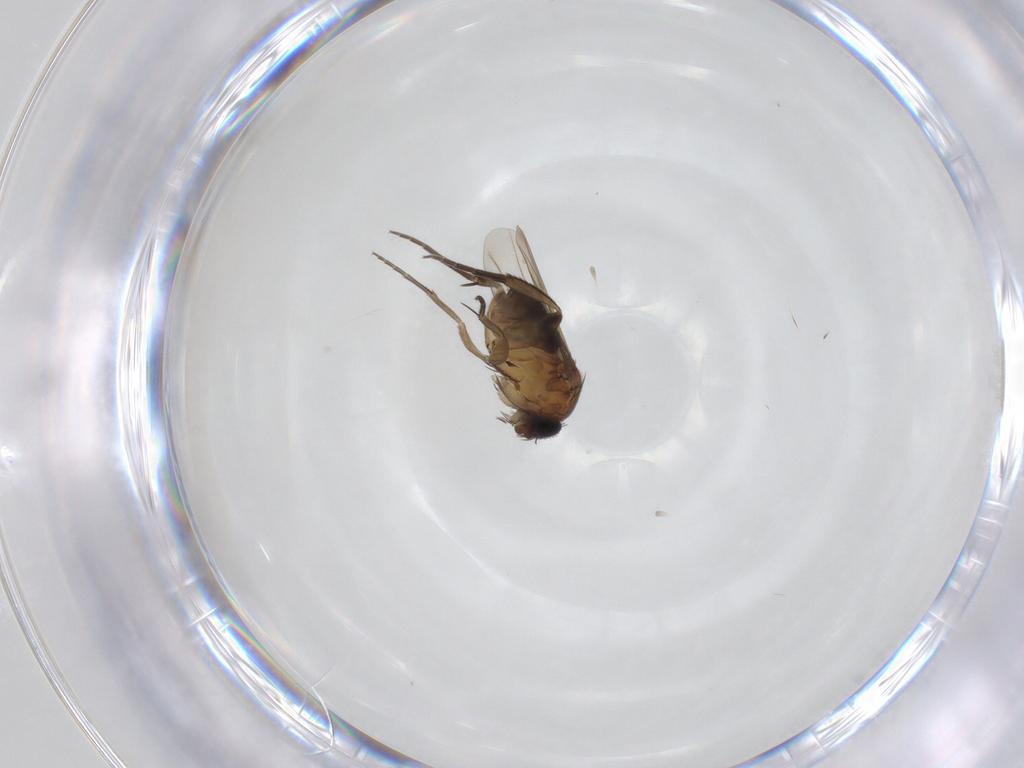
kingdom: Animalia
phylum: Arthropoda
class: Insecta
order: Diptera
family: Phoridae
